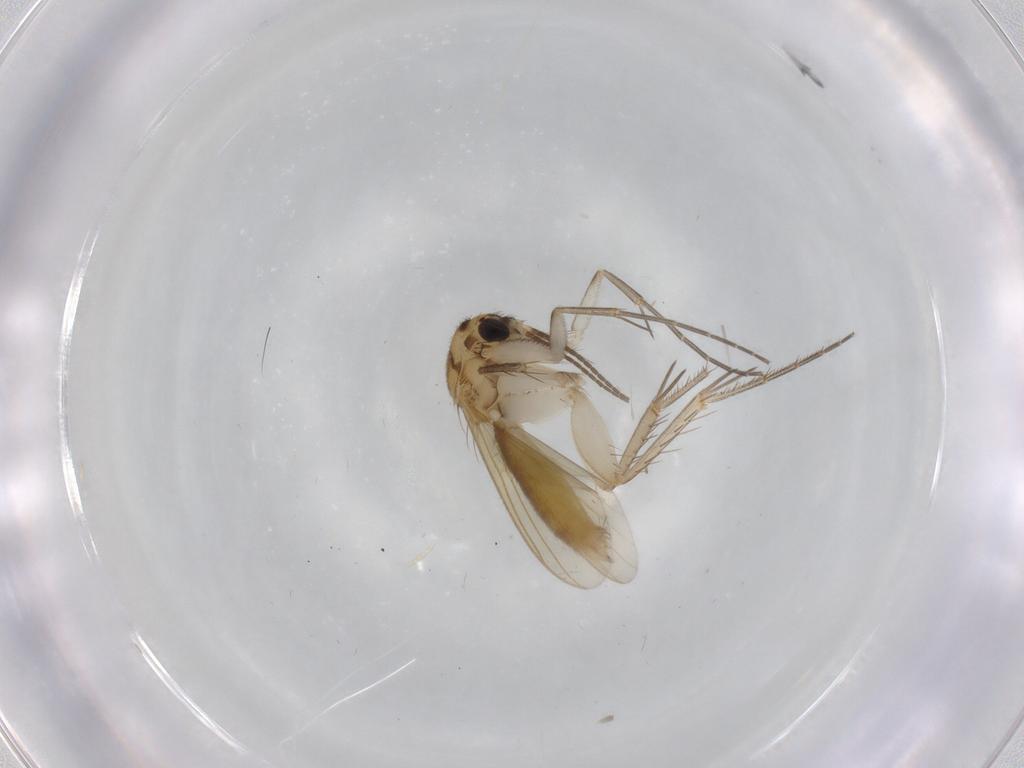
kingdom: Animalia
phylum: Arthropoda
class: Insecta
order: Diptera
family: Mycetophilidae
